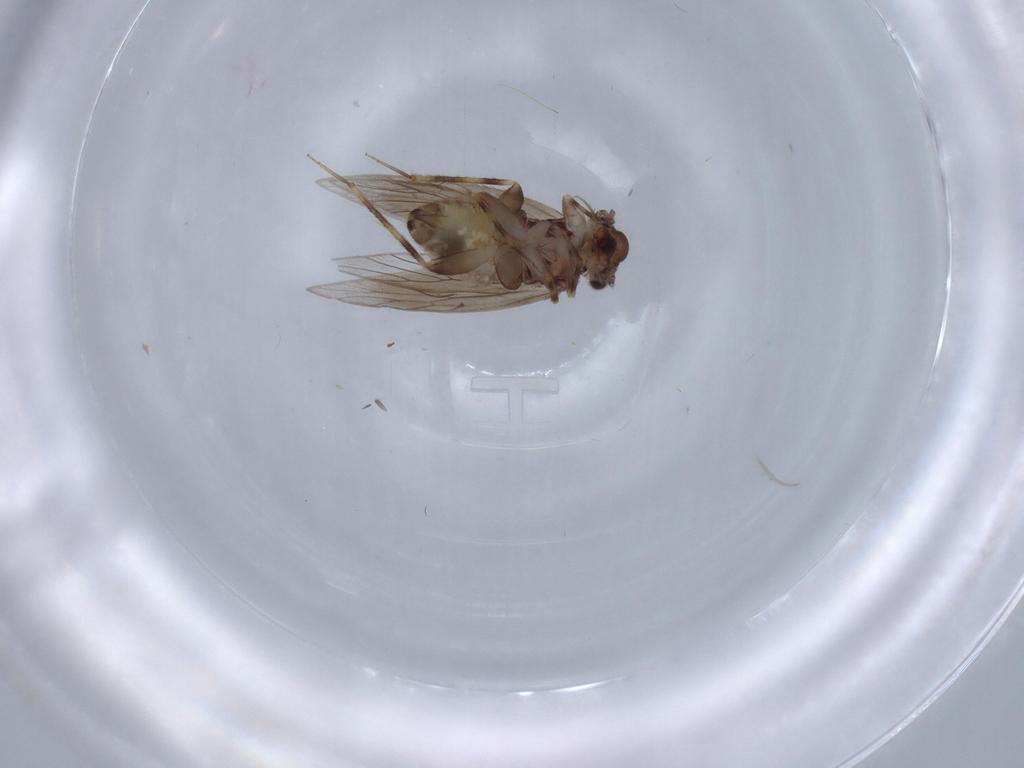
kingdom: Animalia
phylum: Arthropoda
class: Insecta
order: Psocodea
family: Lepidopsocidae
